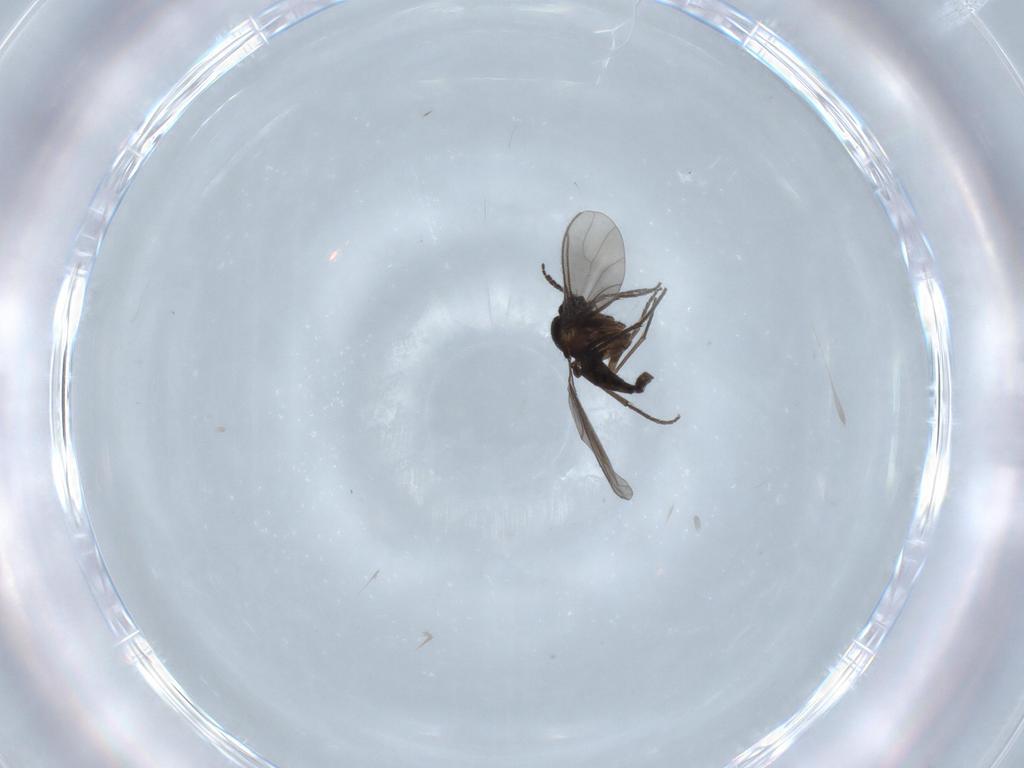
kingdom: Animalia
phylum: Arthropoda
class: Insecta
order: Diptera
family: Sciaridae
